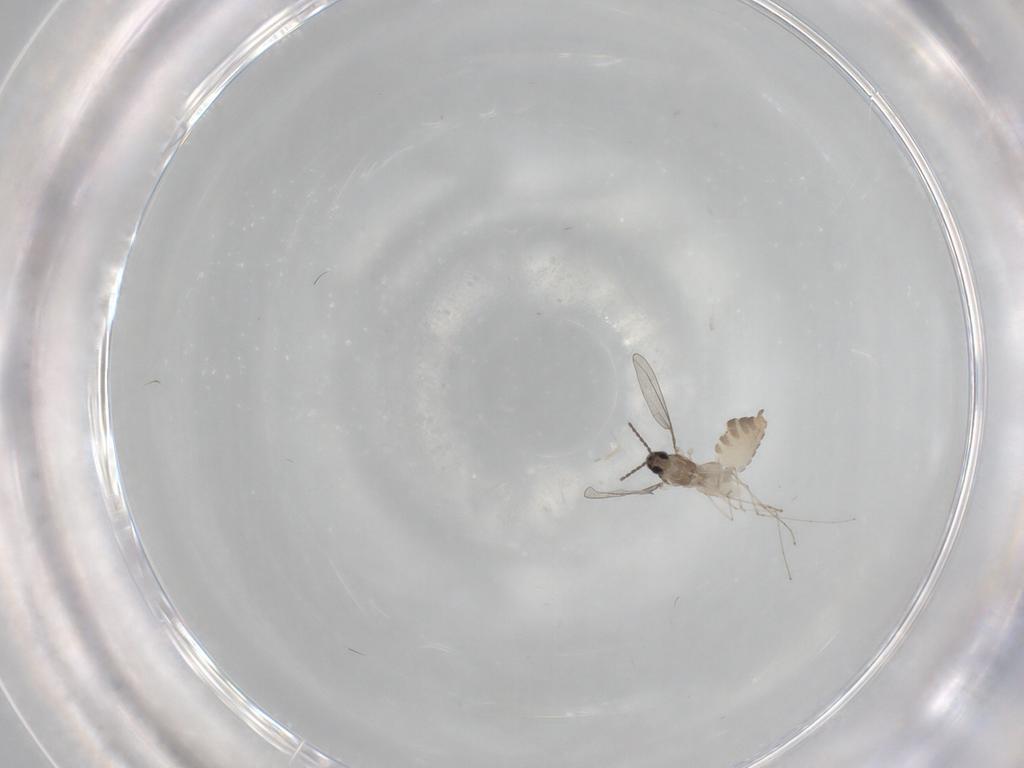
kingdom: Animalia
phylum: Arthropoda
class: Insecta
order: Diptera
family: Cecidomyiidae
